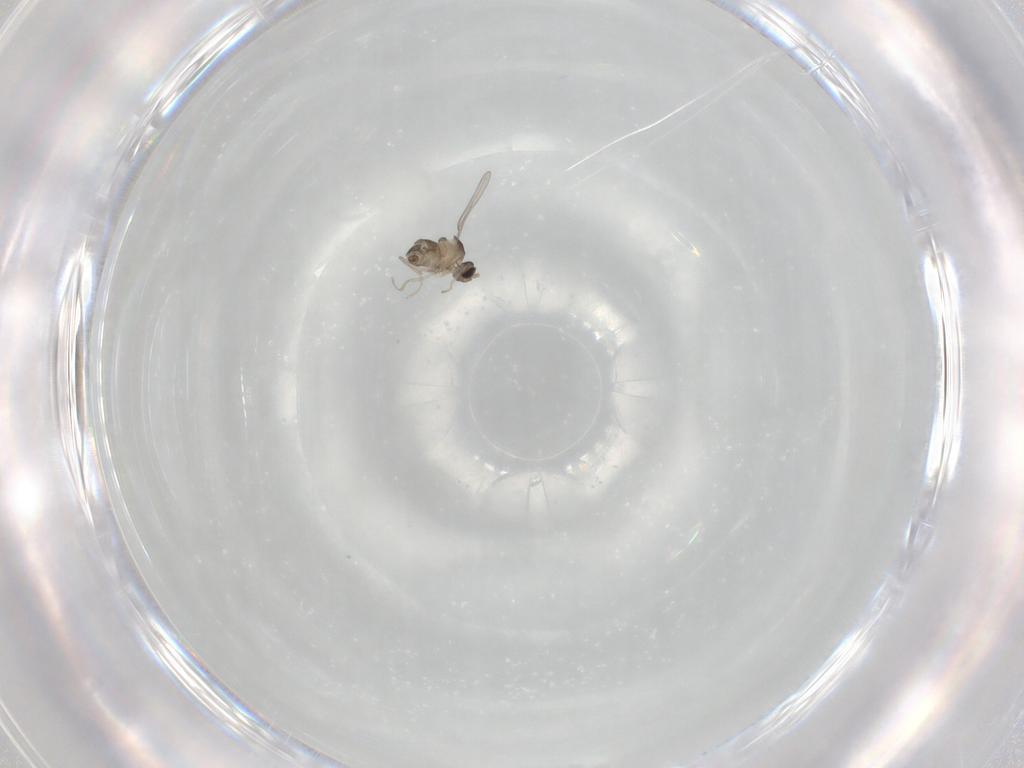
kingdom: Animalia
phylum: Arthropoda
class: Insecta
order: Diptera
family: Cecidomyiidae
